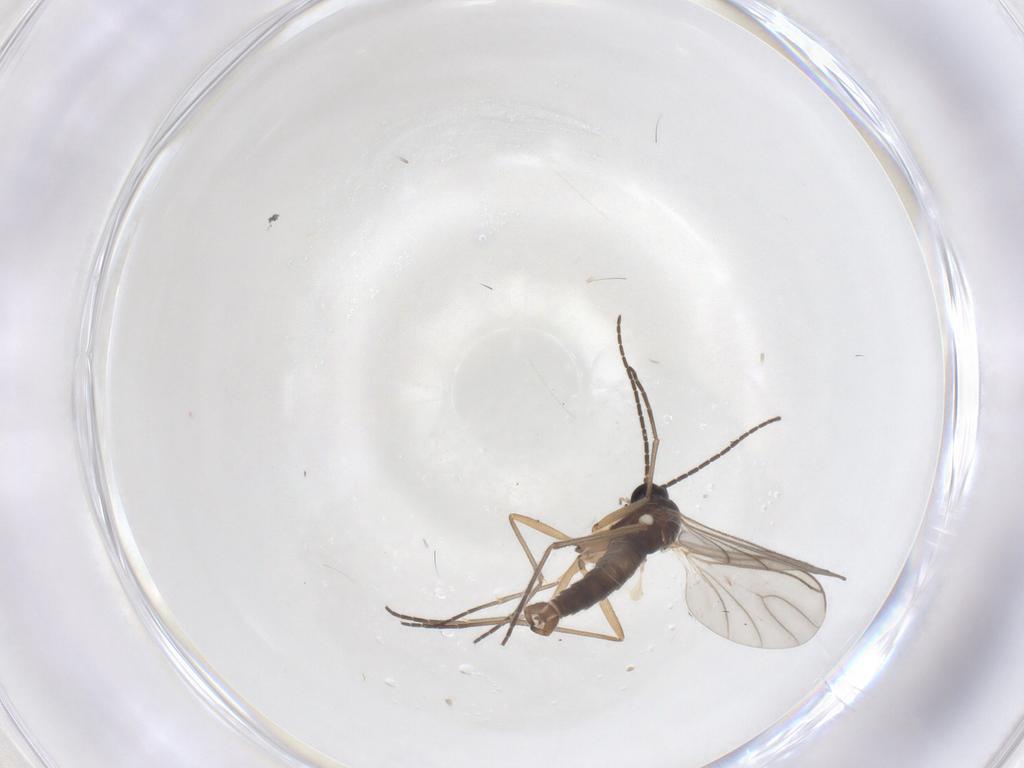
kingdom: Animalia
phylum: Arthropoda
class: Insecta
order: Diptera
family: Sciaridae
